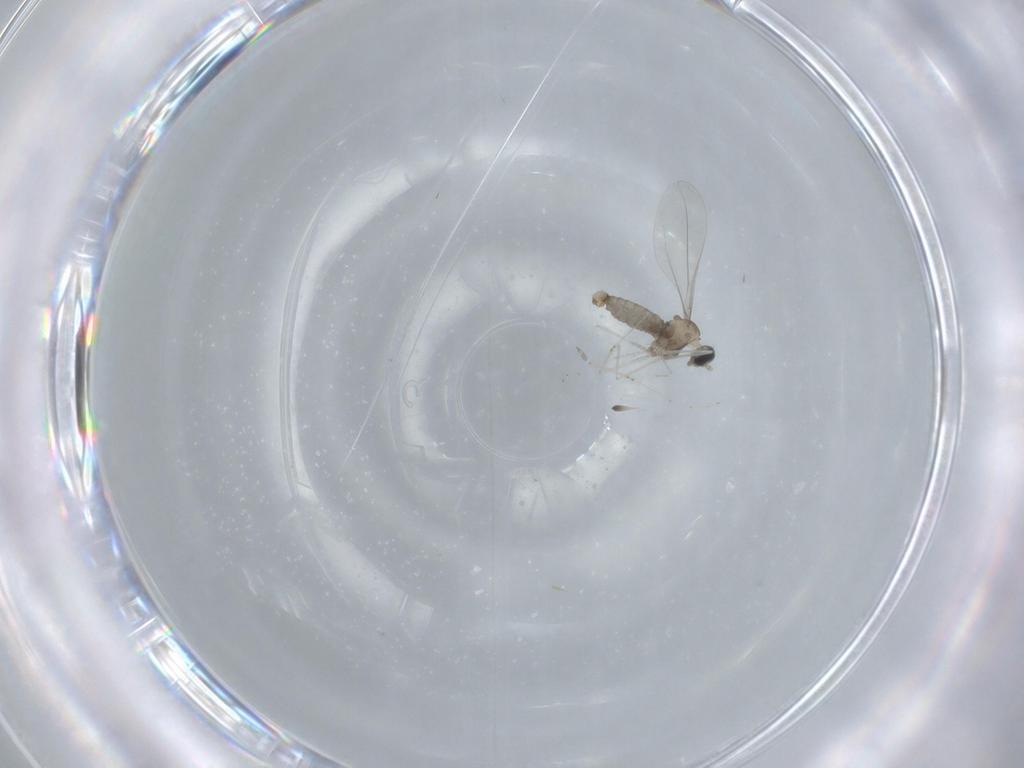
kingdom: Animalia
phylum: Arthropoda
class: Insecta
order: Diptera
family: Cecidomyiidae
